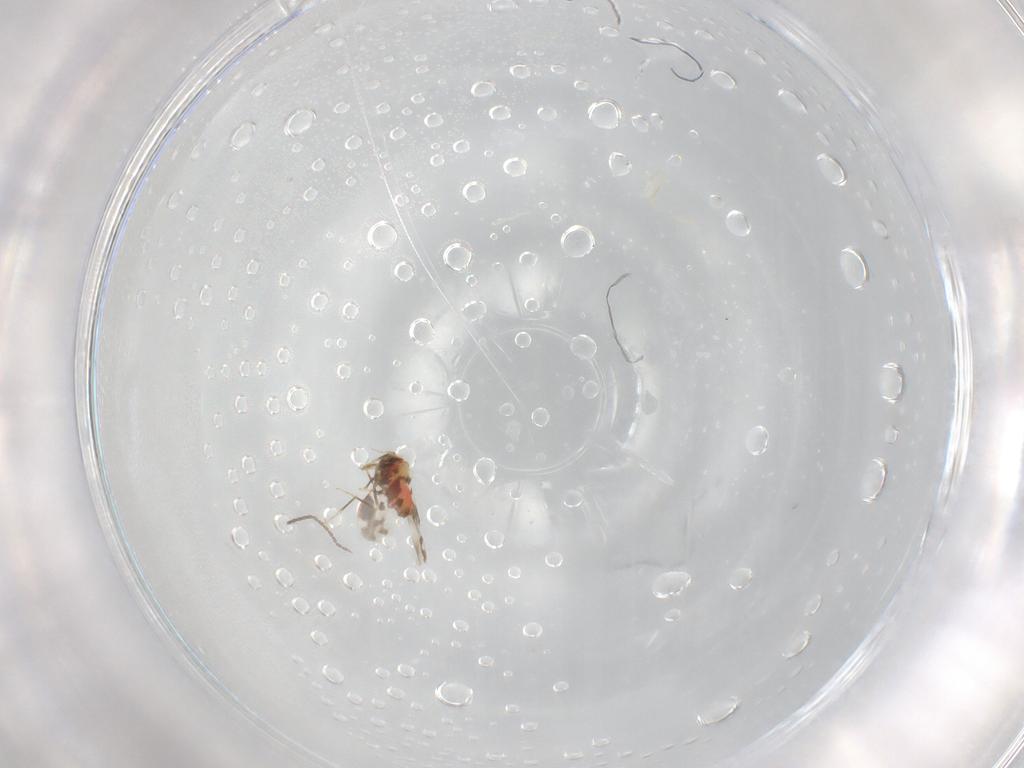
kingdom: Animalia
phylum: Arthropoda
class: Insecta
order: Hemiptera
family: Aleyrodidae
